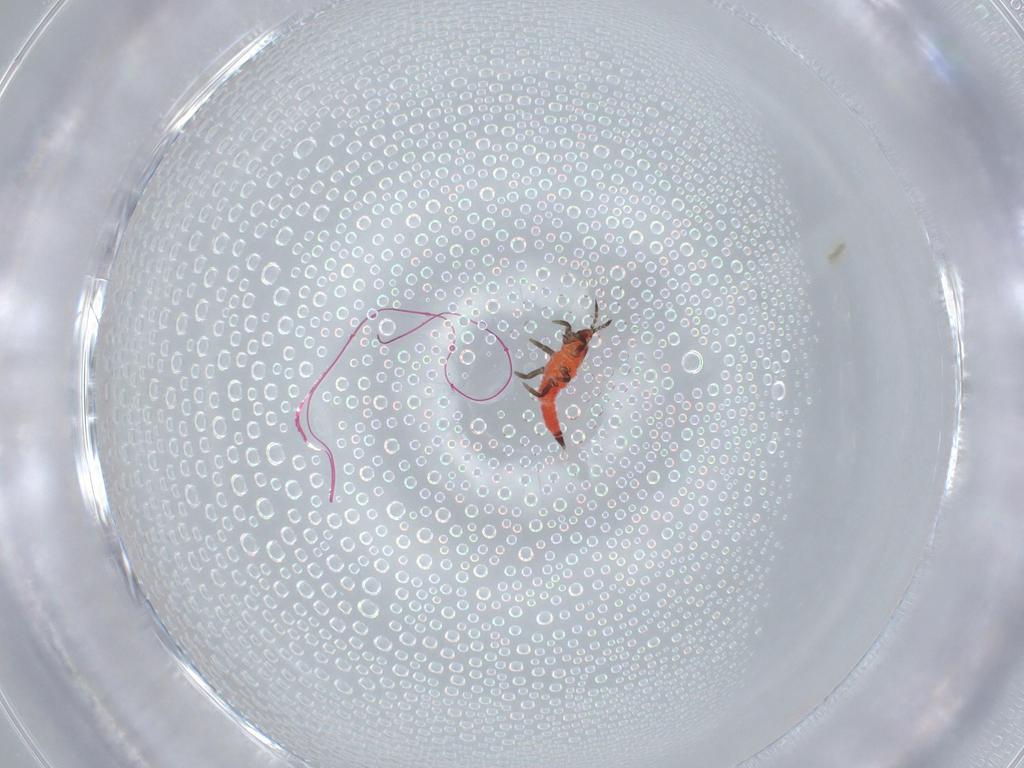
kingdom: Animalia
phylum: Arthropoda
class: Insecta
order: Thysanoptera
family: Phlaeothripidae
